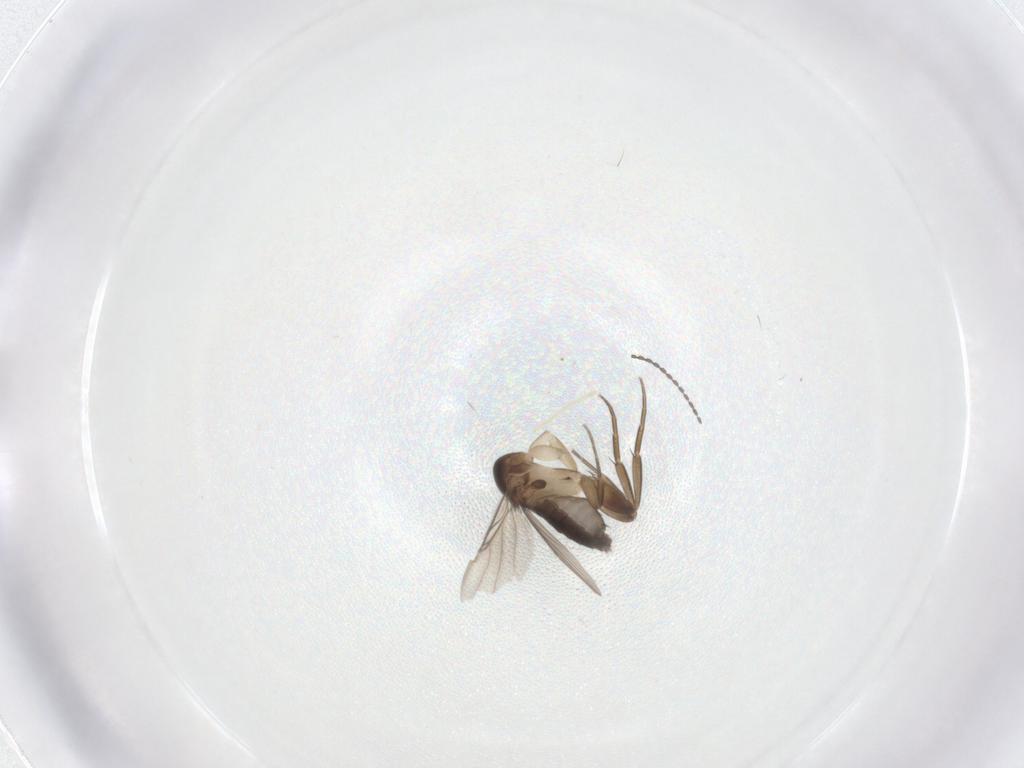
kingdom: Animalia
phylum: Arthropoda
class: Insecta
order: Diptera
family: Phoridae
